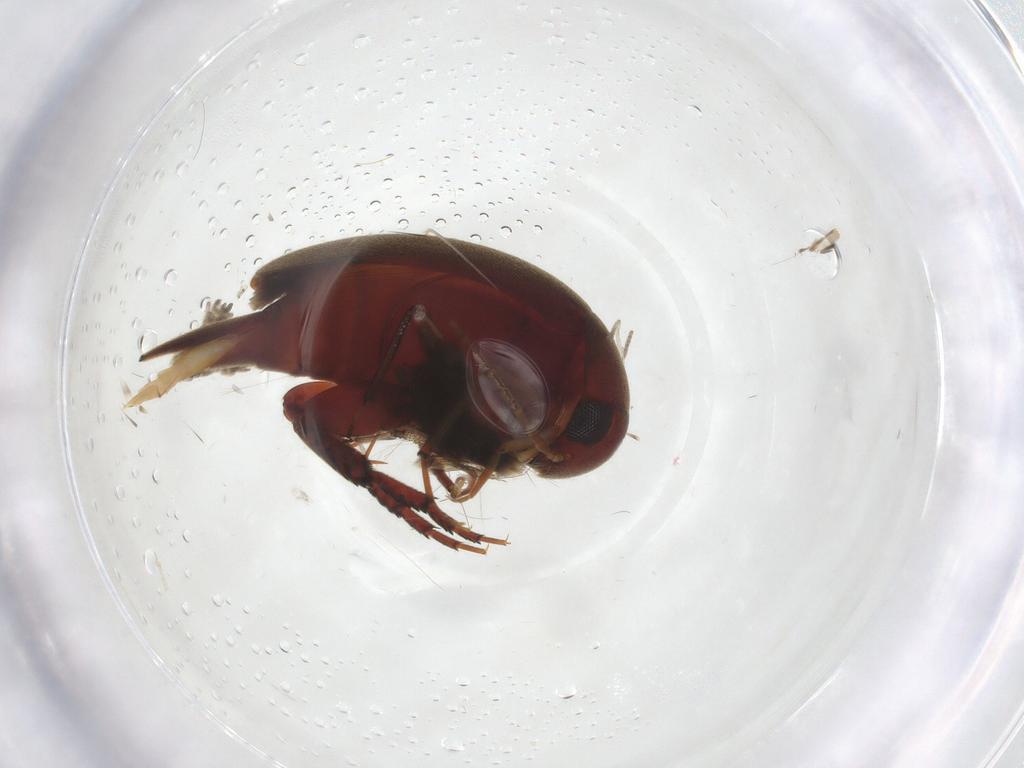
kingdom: Animalia
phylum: Arthropoda
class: Insecta
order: Coleoptera
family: Mordellidae
